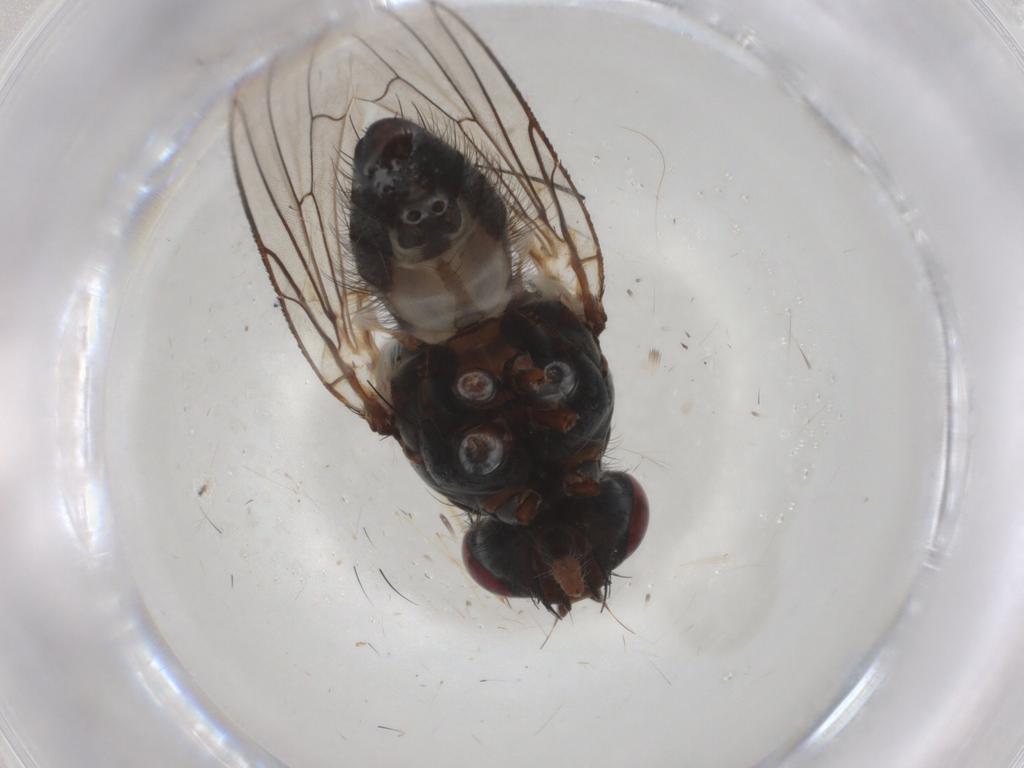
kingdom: Animalia
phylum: Arthropoda
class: Insecta
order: Diptera
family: Anthomyiidae
